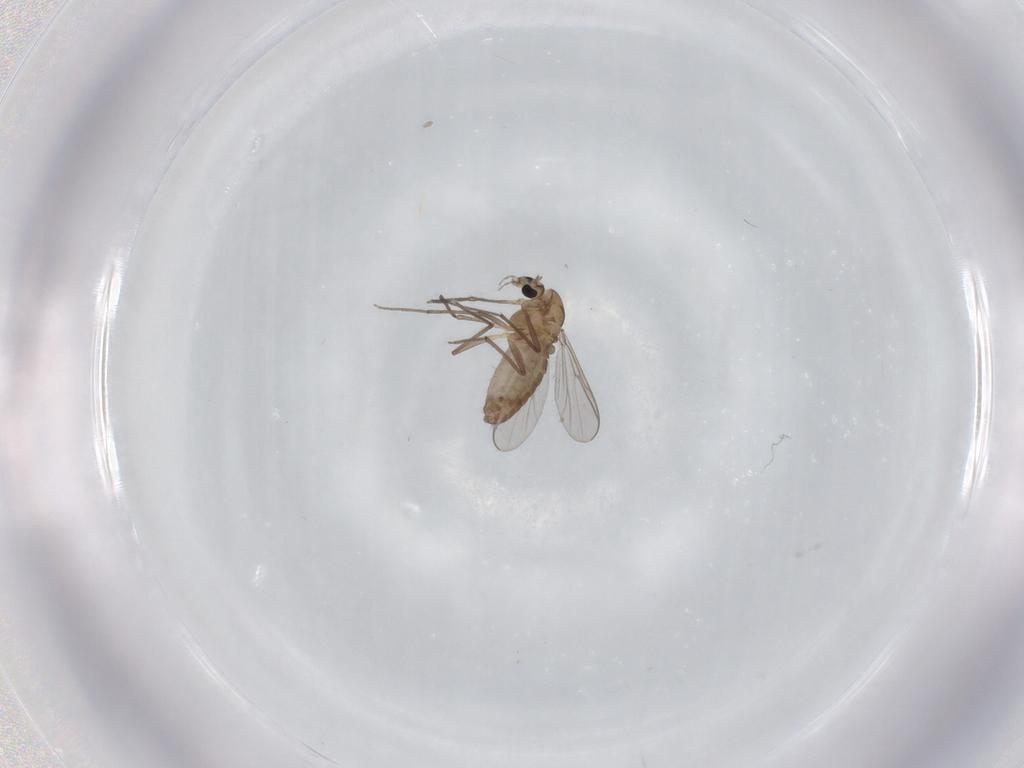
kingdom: Animalia
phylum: Arthropoda
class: Insecta
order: Diptera
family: Chironomidae
